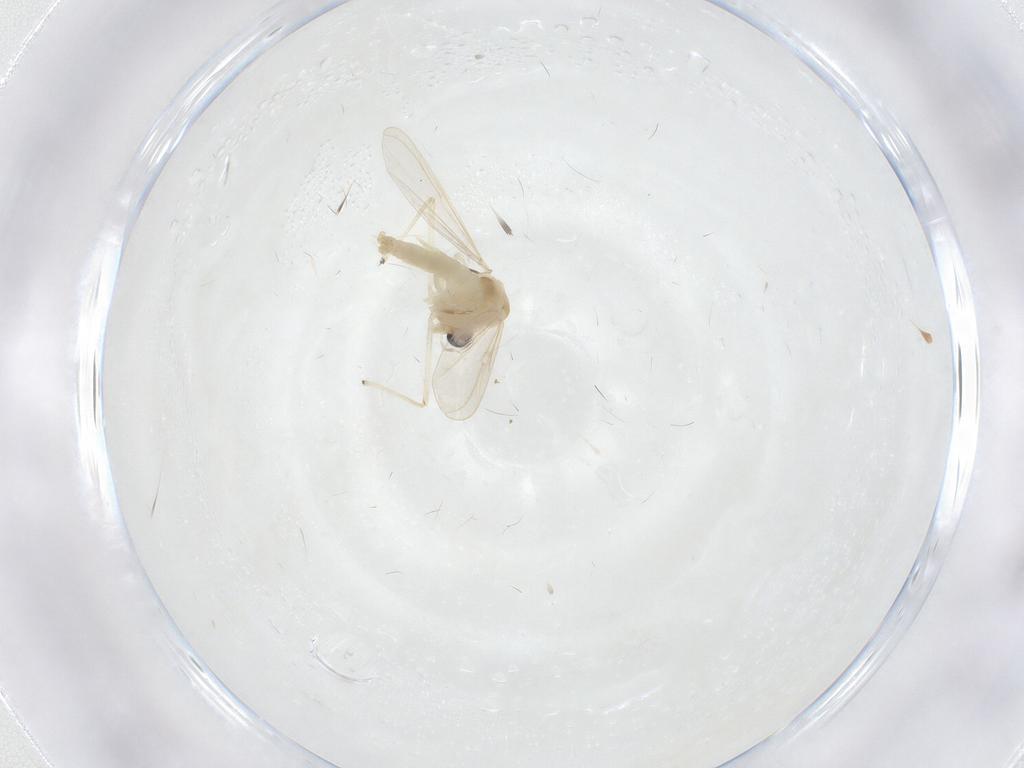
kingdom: Animalia
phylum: Arthropoda
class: Insecta
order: Diptera
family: Chironomidae
